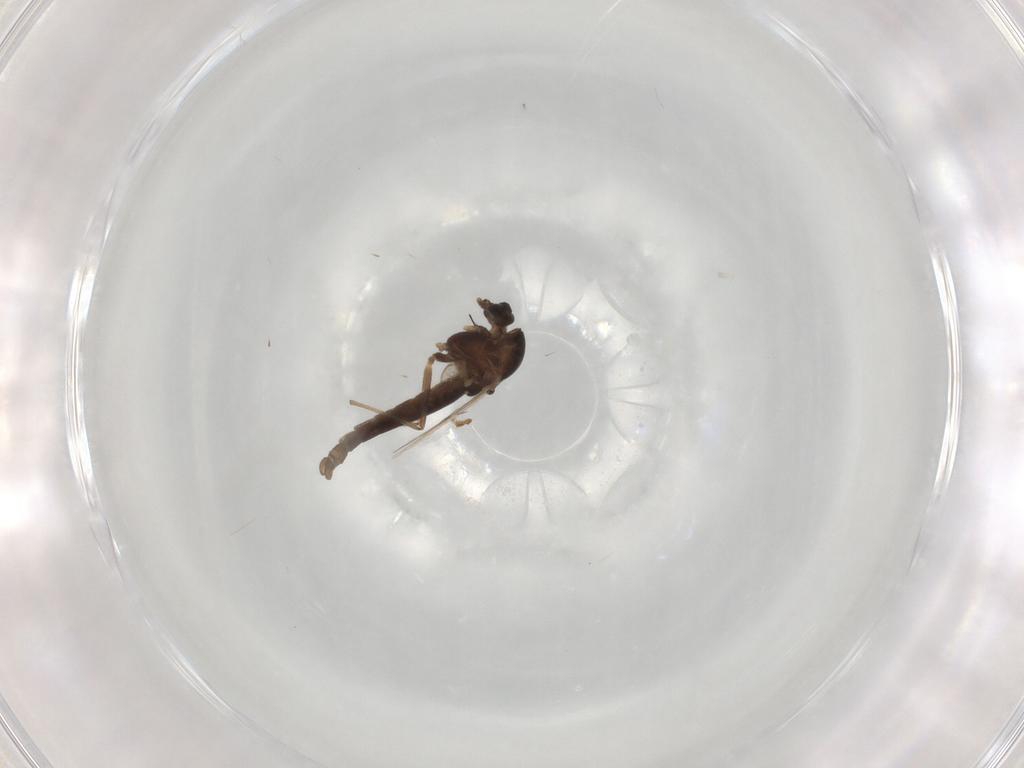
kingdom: Animalia
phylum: Arthropoda
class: Insecta
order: Diptera
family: Chironomidae
